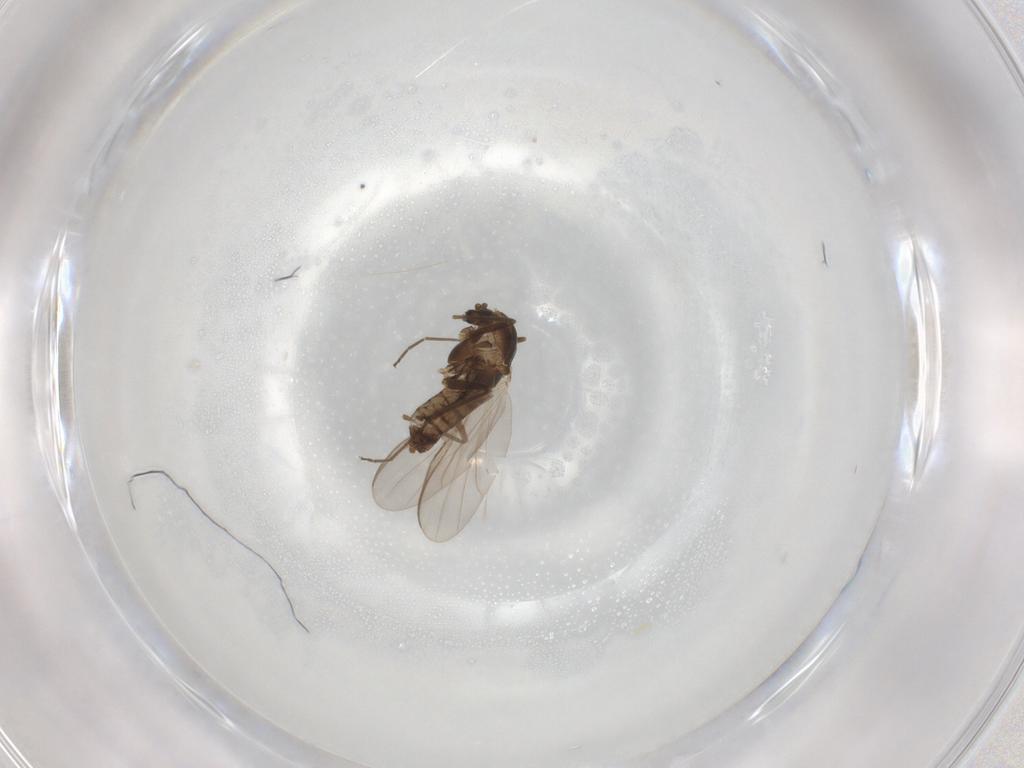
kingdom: Animalia
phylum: Arthropoda
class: Insecta
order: Diptera
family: Chironomidae
